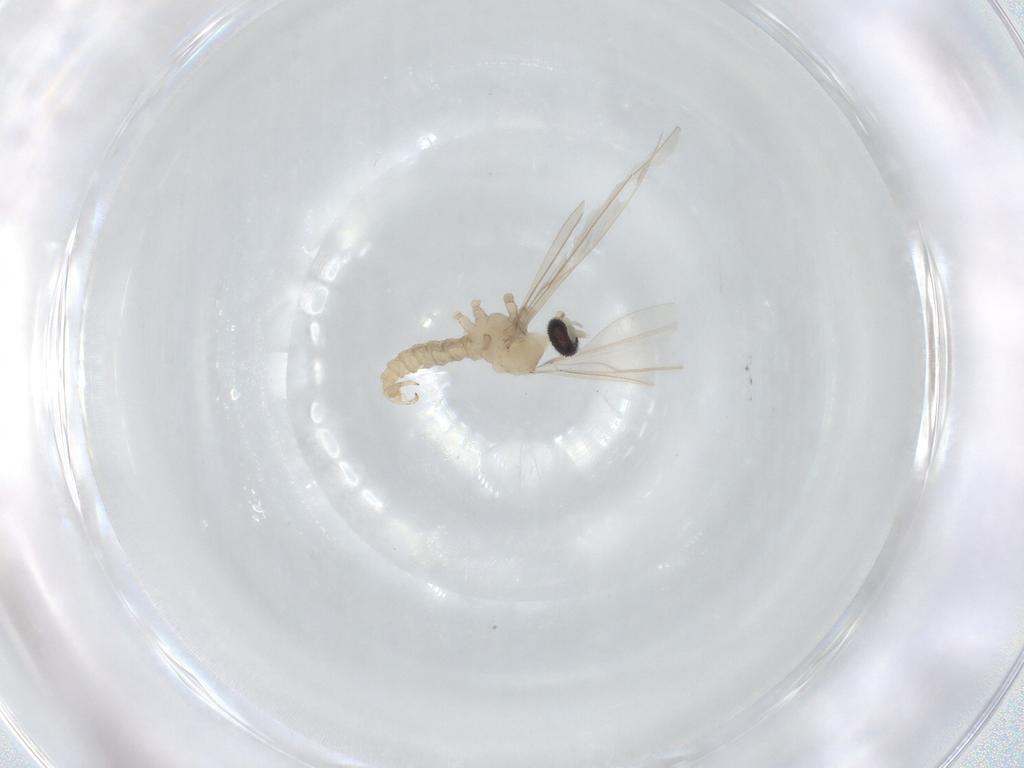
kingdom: Animalia
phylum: Arthropoda
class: Insecta
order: Diptera
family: Cecidomyiidae
